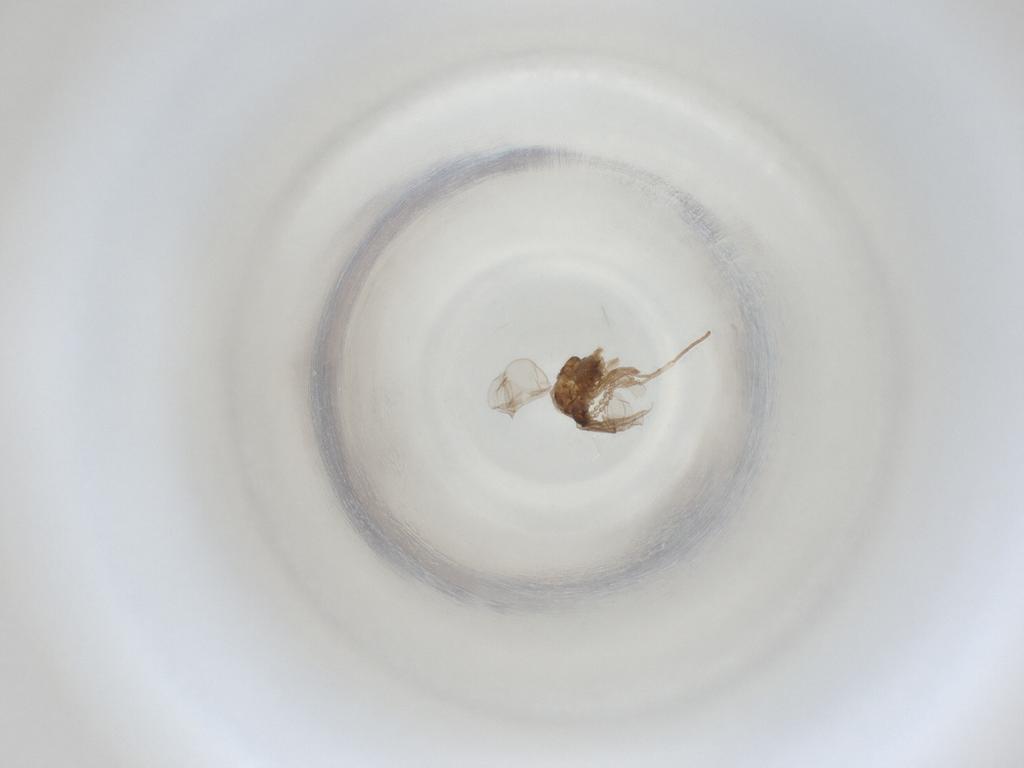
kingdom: Animalia
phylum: Arthropoda
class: Insecta
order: Diptera
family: Cecidomyiidae
